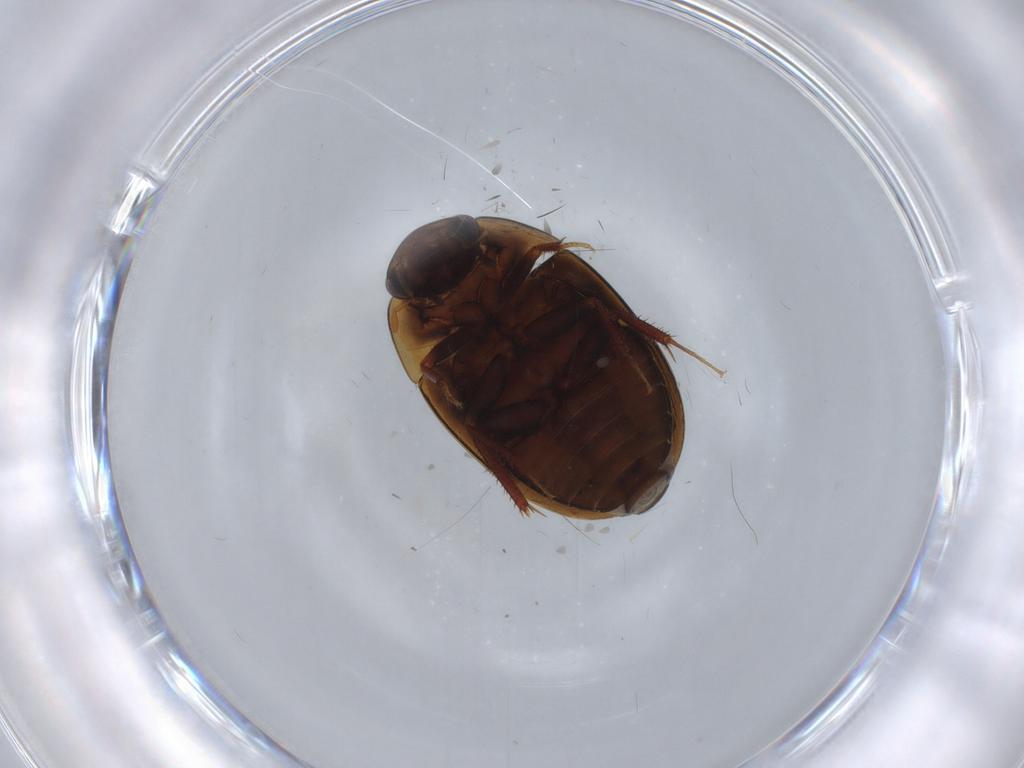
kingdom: Animalia
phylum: Arthropoda
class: Insecta
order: Coleoptera
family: Hydrophilidae
